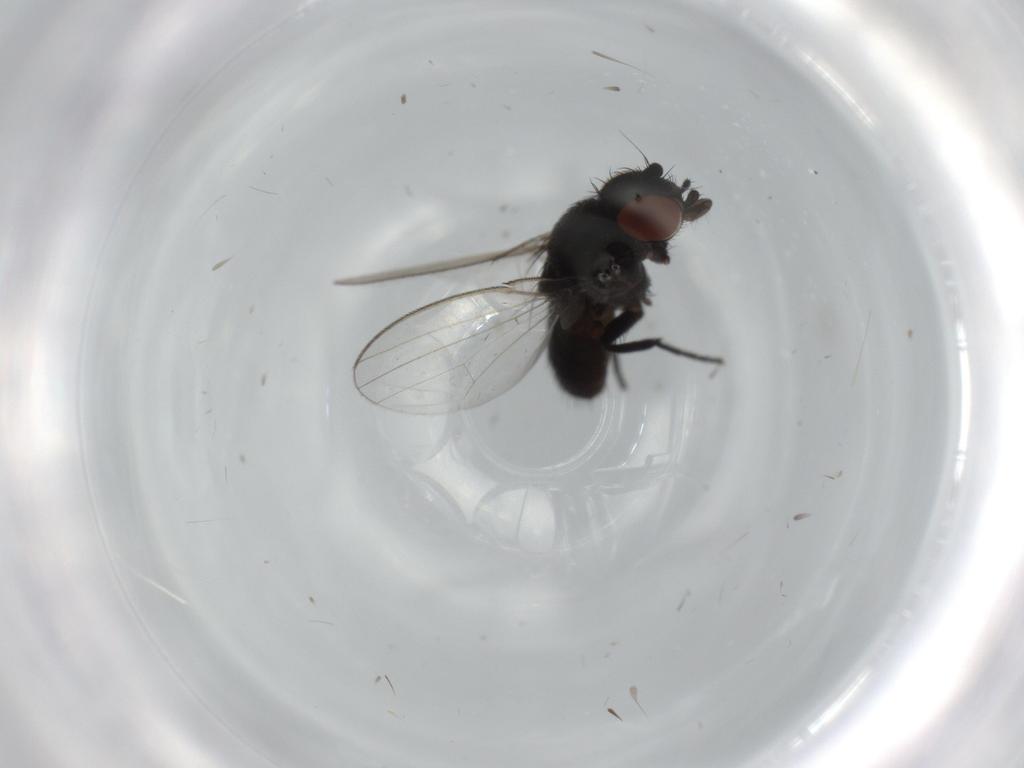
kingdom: Animalia
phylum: Arthropoda
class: Insecta
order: Diptera
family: Milichiidae
